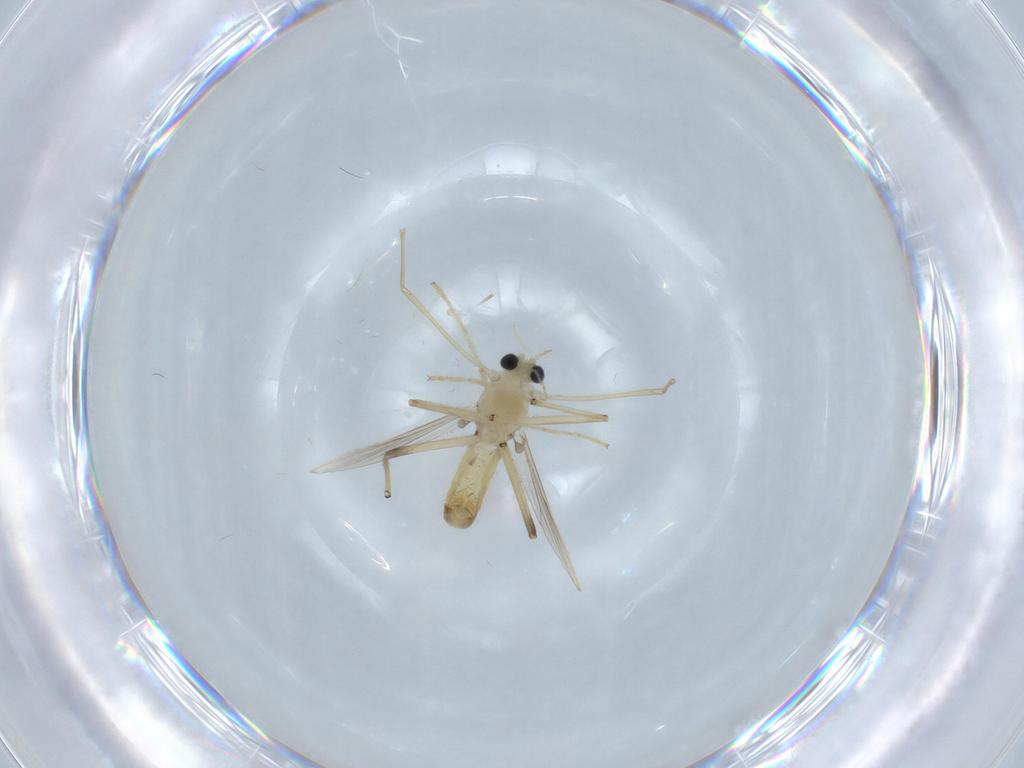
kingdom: Animalia
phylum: Arthropoda
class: Insecta
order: Diptera
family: Chironomidae
